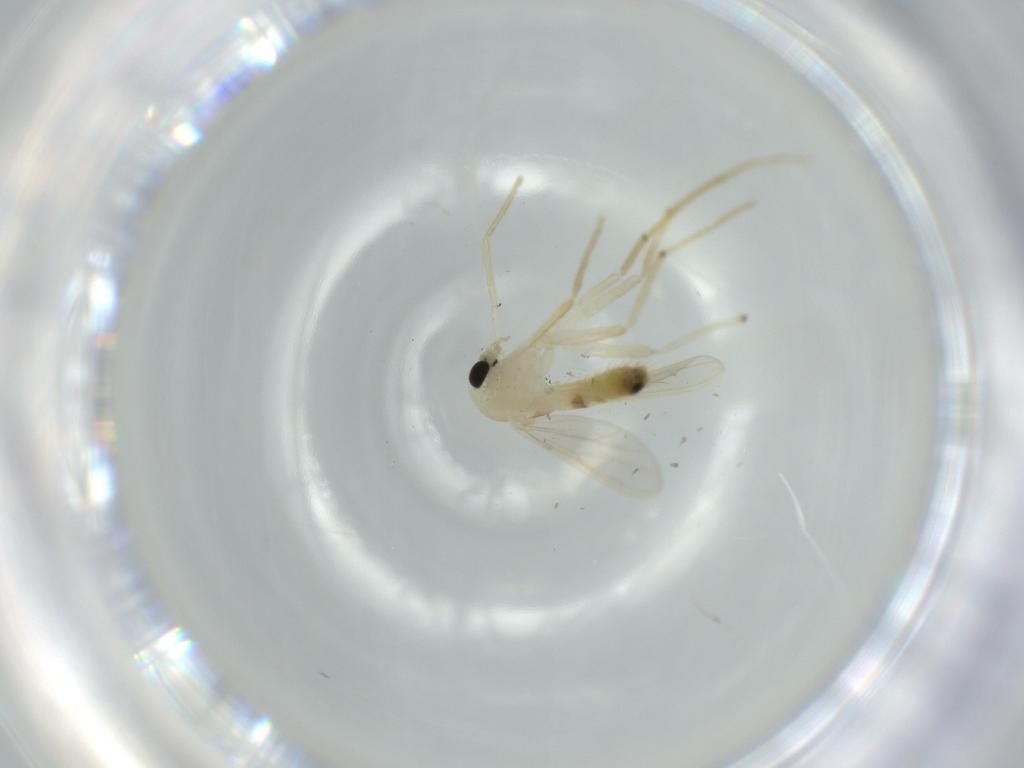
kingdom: Animalia
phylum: Arthropoda
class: Insecta
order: Diptera
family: Chironomidae
